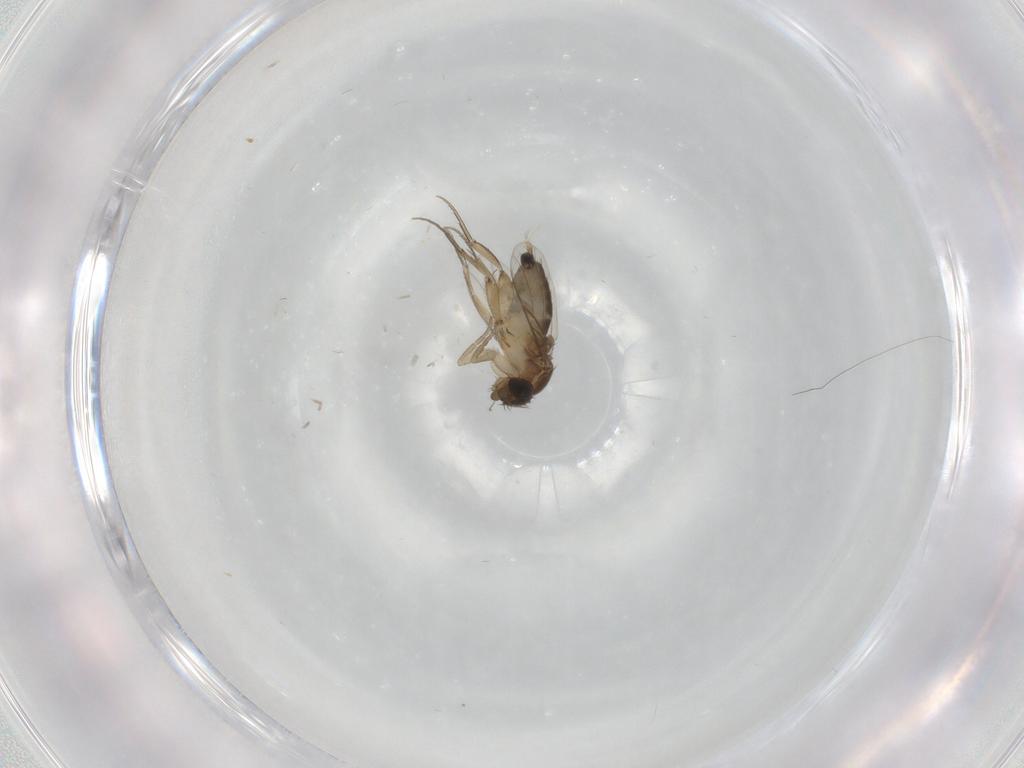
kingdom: Animalia
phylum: Arthropoda
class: Insecta
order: Diptera
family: Phoridae
